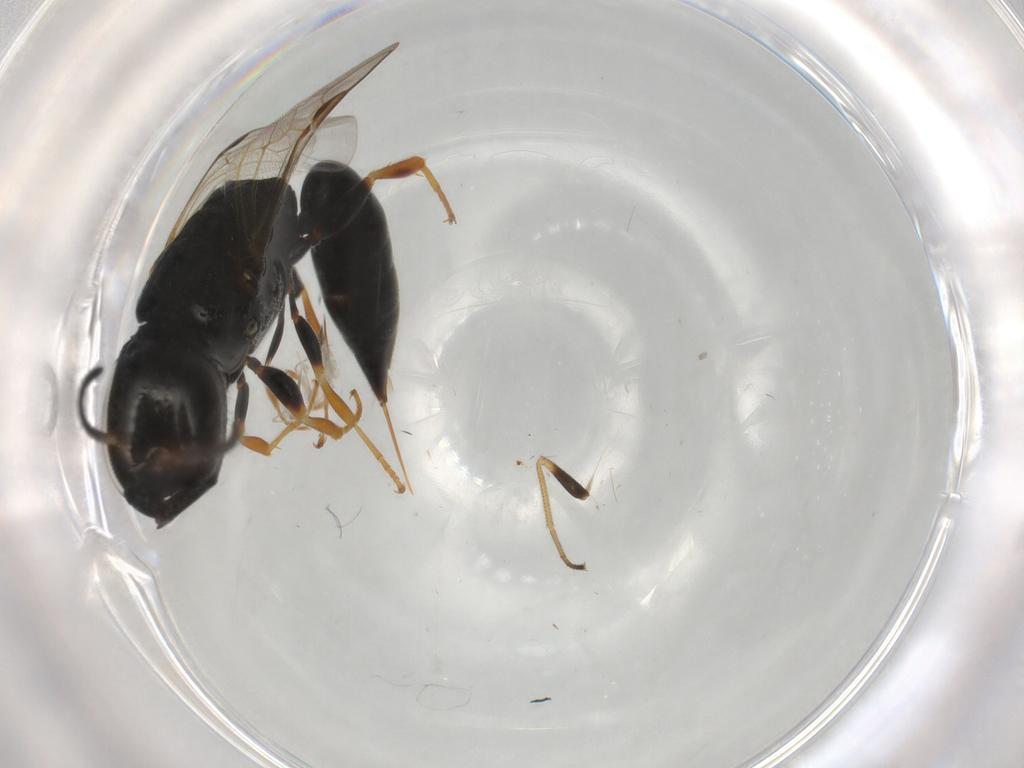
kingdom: Animalia
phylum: Arthropoda
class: Insecta
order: Hymenoptera
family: Crabronidae
